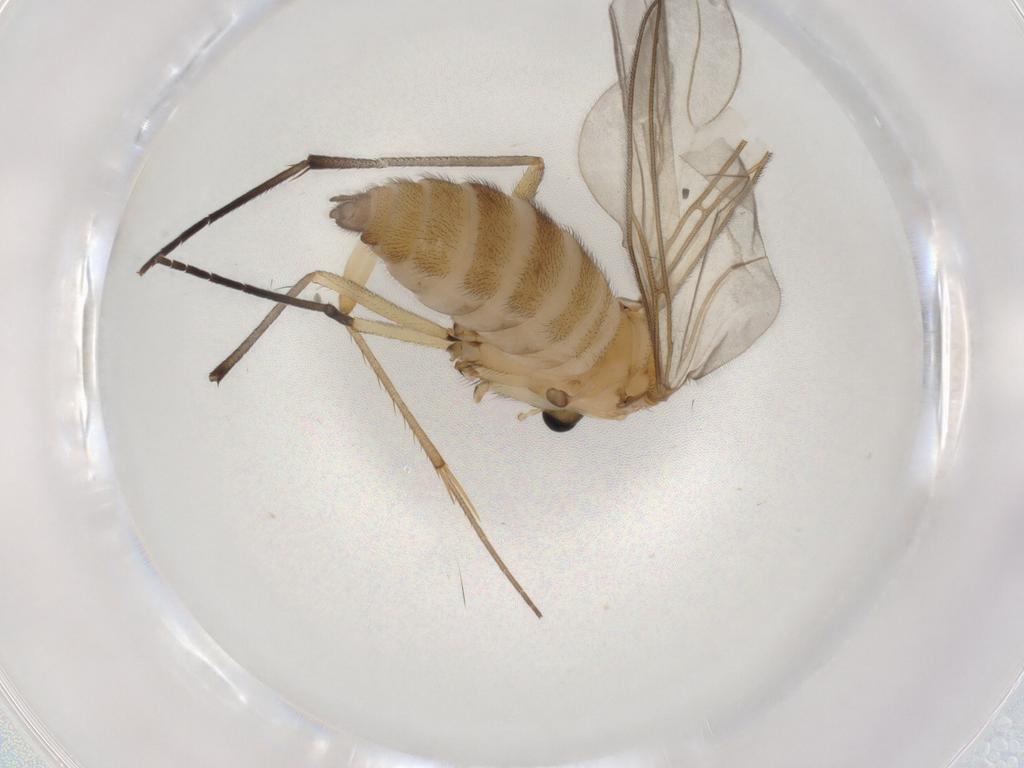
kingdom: Animalia
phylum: Arthropoda
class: Insecta
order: Diptera
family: Sciaridae
